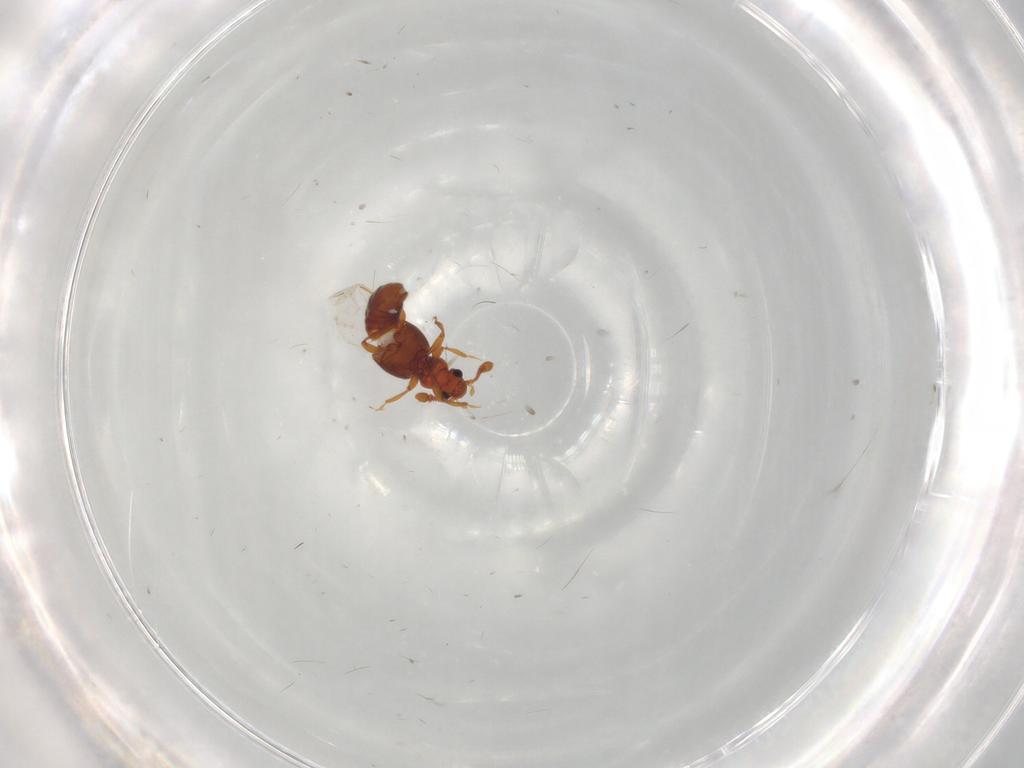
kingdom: Animalia
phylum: Arthropoda
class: Insecta
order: Coleoptera
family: Staphylinidae
